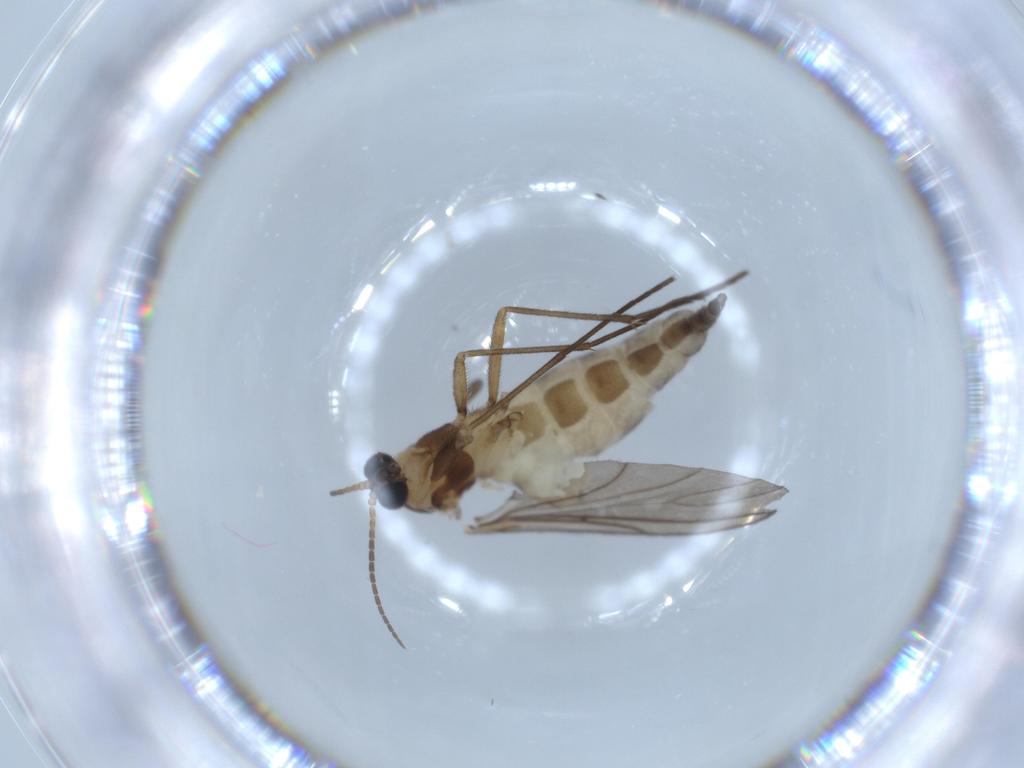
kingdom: Animalia
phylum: Arthropoda
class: Insecta
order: Diptera
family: Sciaridae
